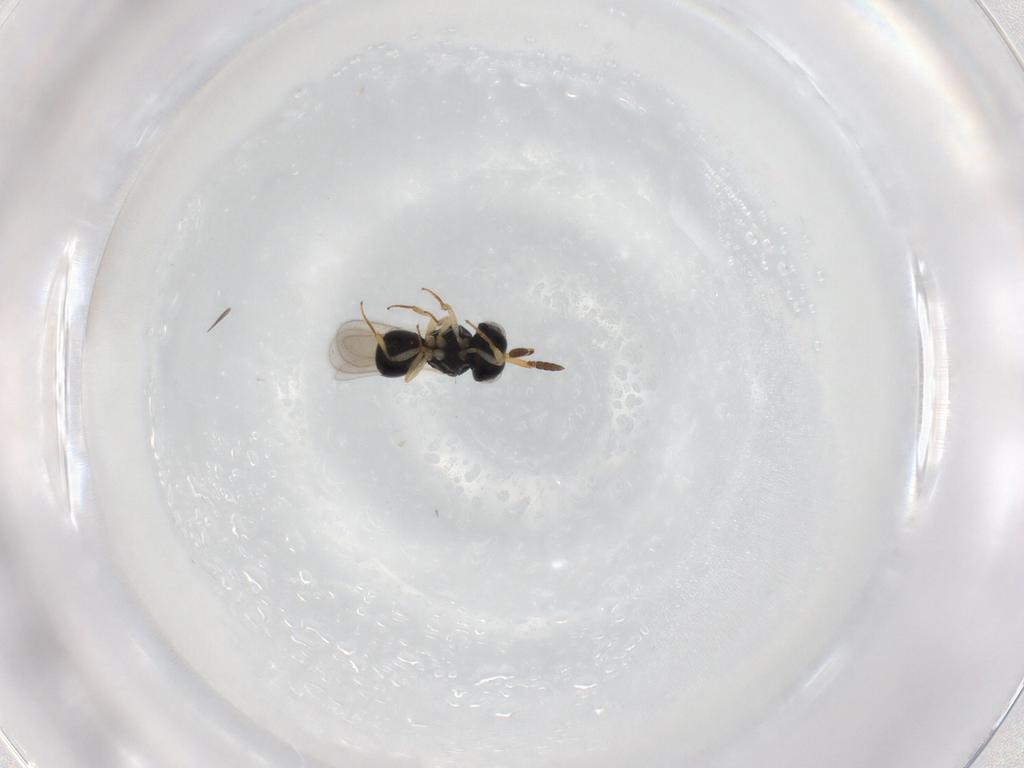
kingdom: Animalia
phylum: Arthropoda
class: Insecta
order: Hymenoptera
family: Scelionidae
